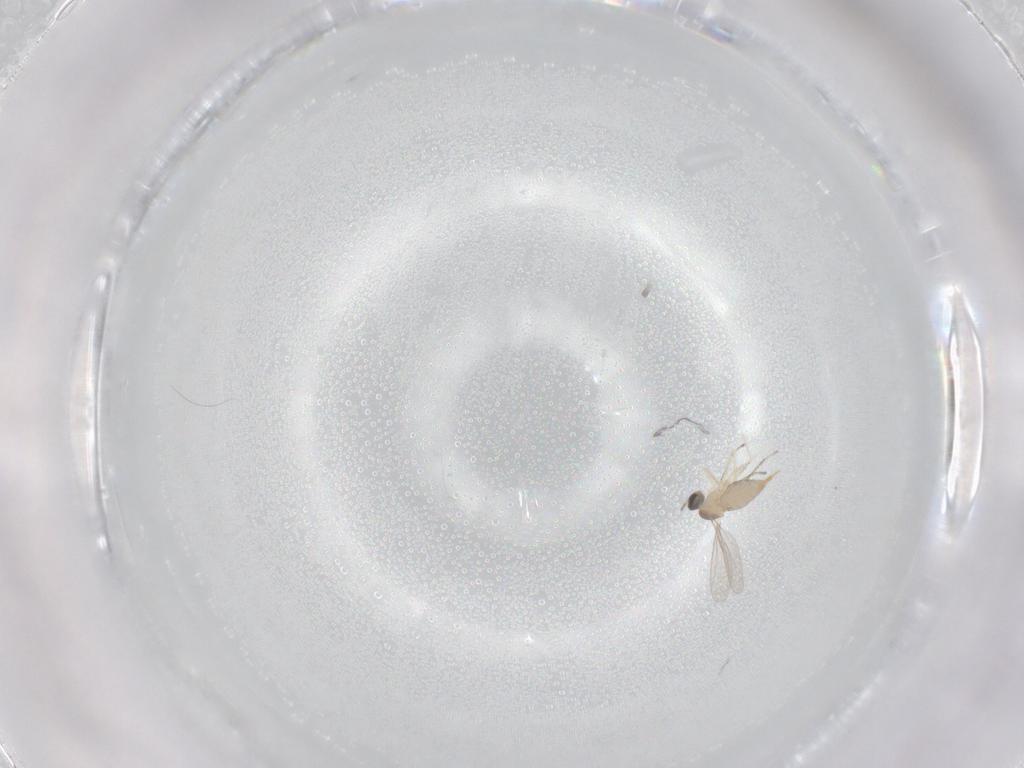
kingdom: Animalia
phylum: Arthropoda
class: Insecta
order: Diptera
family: Cecidomyiidae
